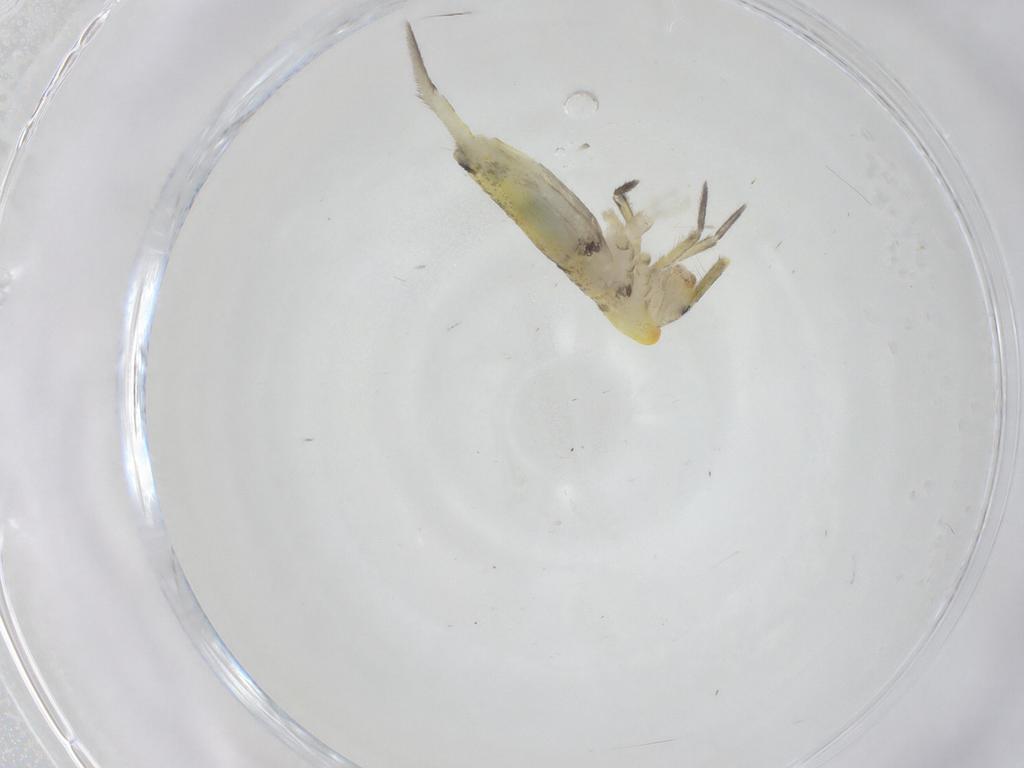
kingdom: Animalia
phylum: Arthropoda
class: Collembola
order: Entomobryomorpha
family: Entomobryidae
